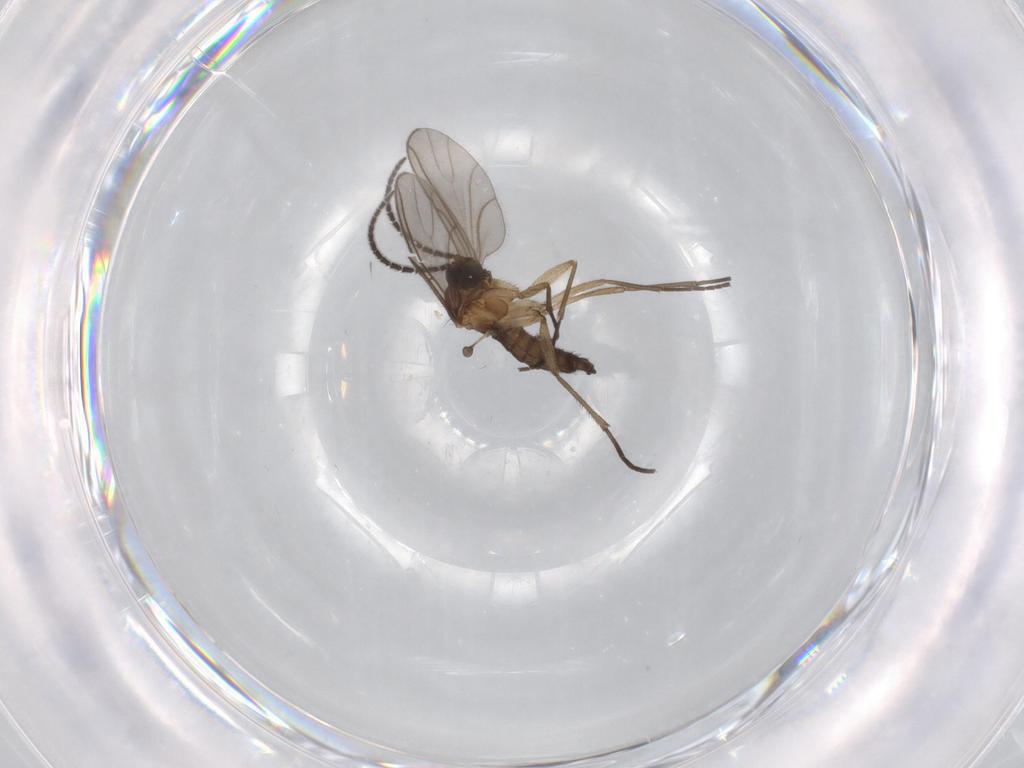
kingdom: Animalia
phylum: Arthropoda
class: Insecta
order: Diptera
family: Sciaridae
